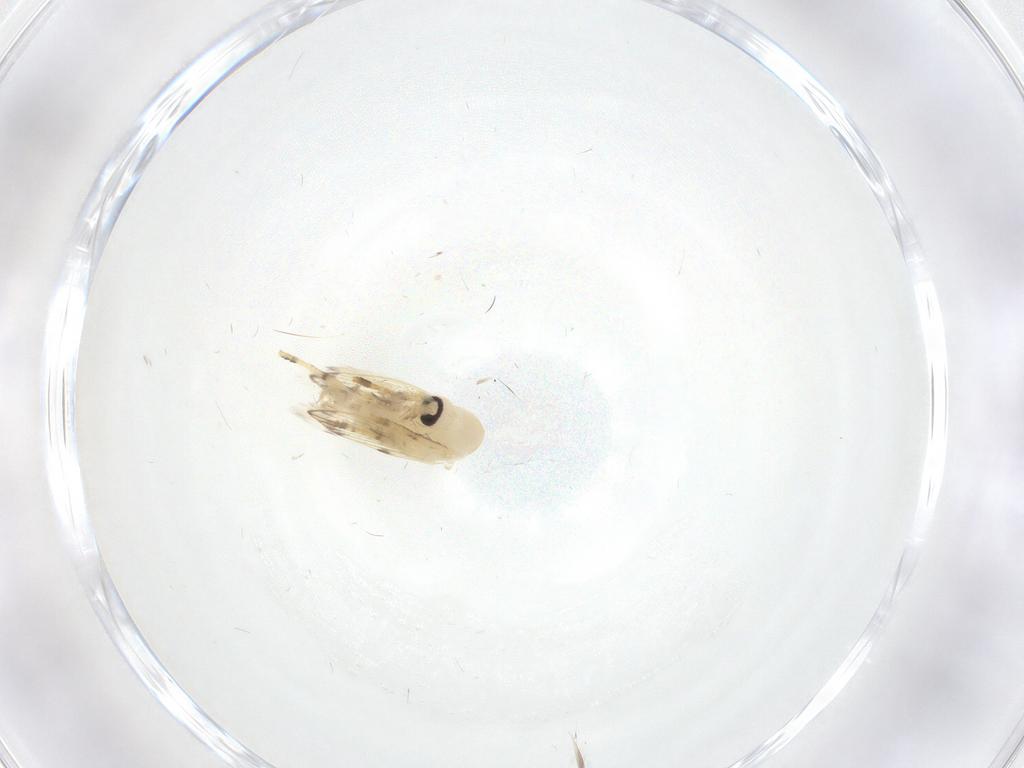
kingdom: Animalia
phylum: Arthropoda
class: Insecta
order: Diptera
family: Psychodidae
